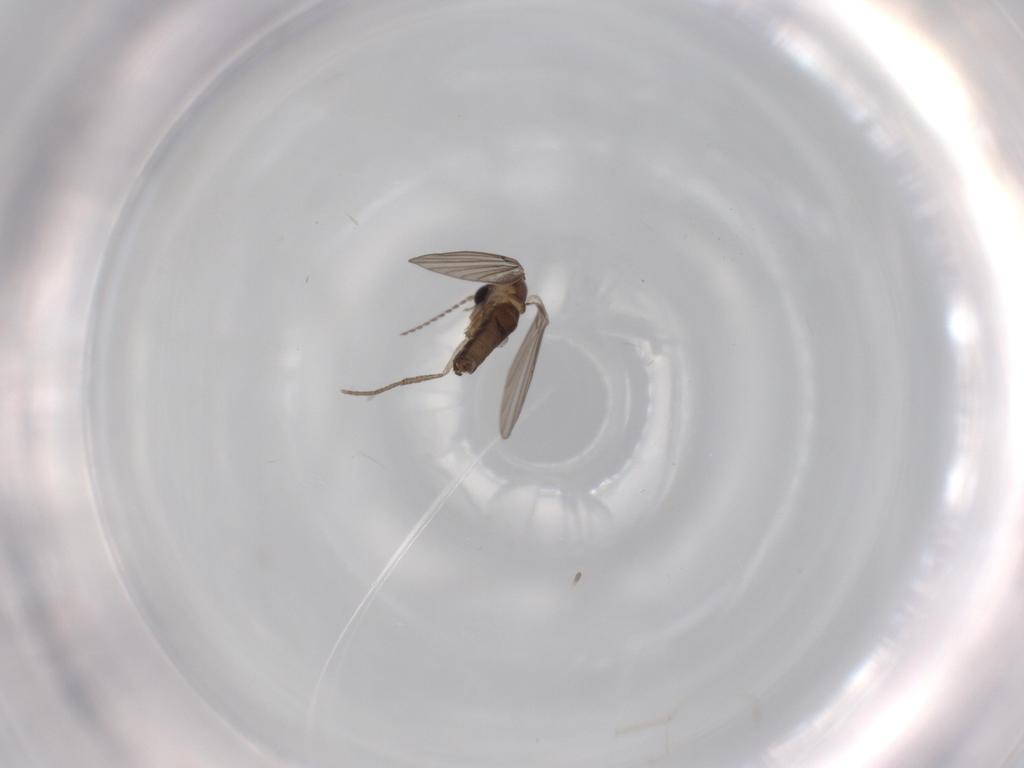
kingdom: Animalia
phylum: Arthropoda
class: Insecta
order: Diptera
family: Psychodidae
